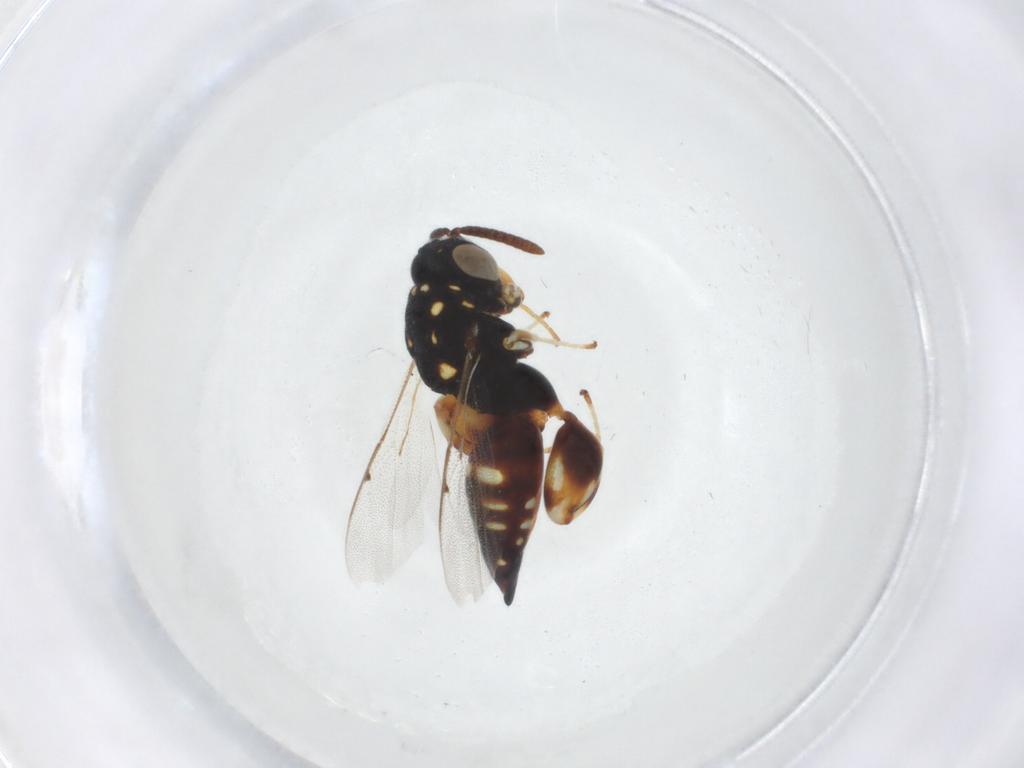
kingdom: Animalia
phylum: Arthropoda
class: Insecta
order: Hymenoptera
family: Chalcididae
